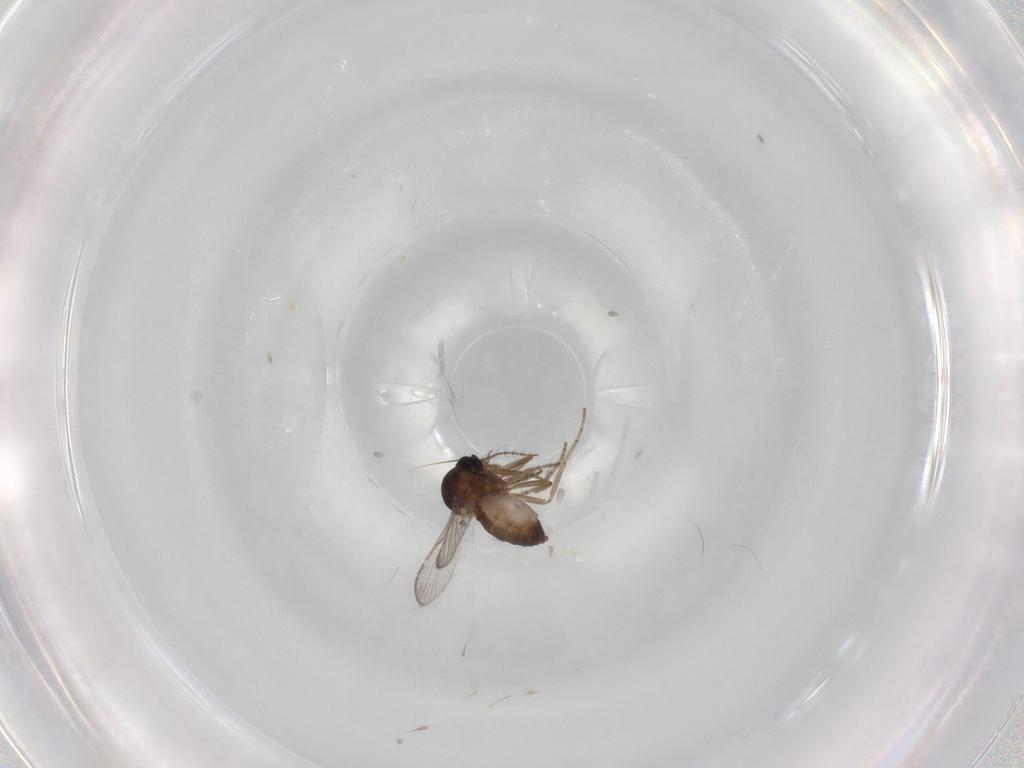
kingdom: Animalia
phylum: Arthropoda
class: Insecta
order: Diptera
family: Ceratopogonidae
